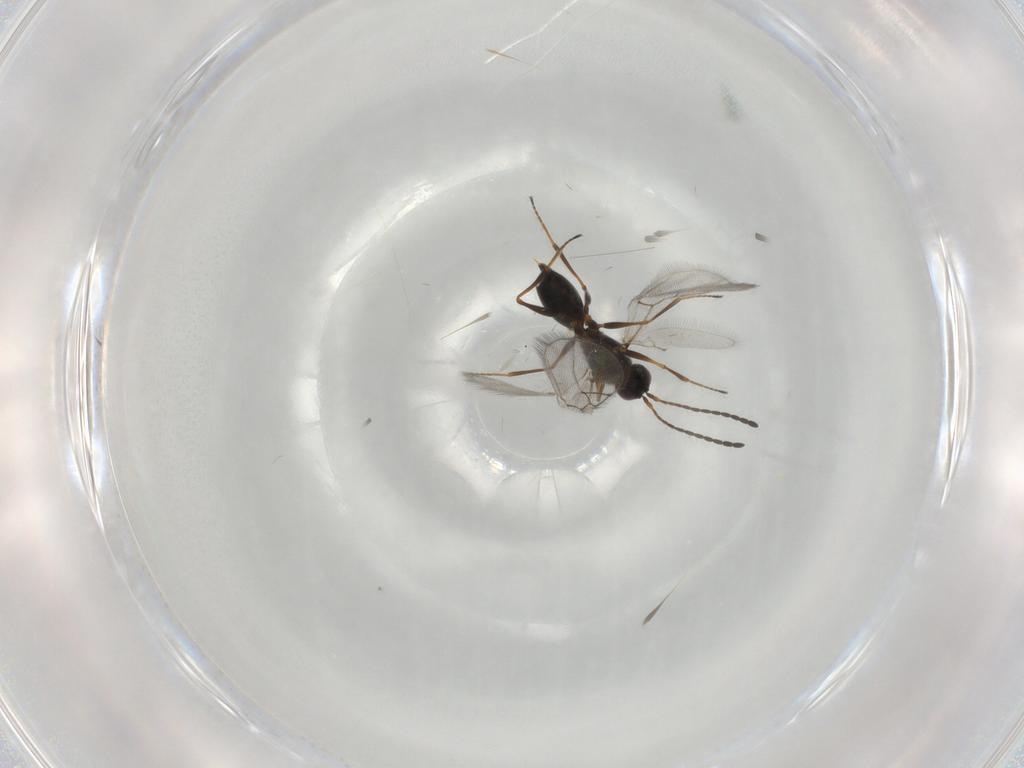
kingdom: Animalia
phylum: Arthropoda
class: Insecta
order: Hymenoptera
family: Figitidae
